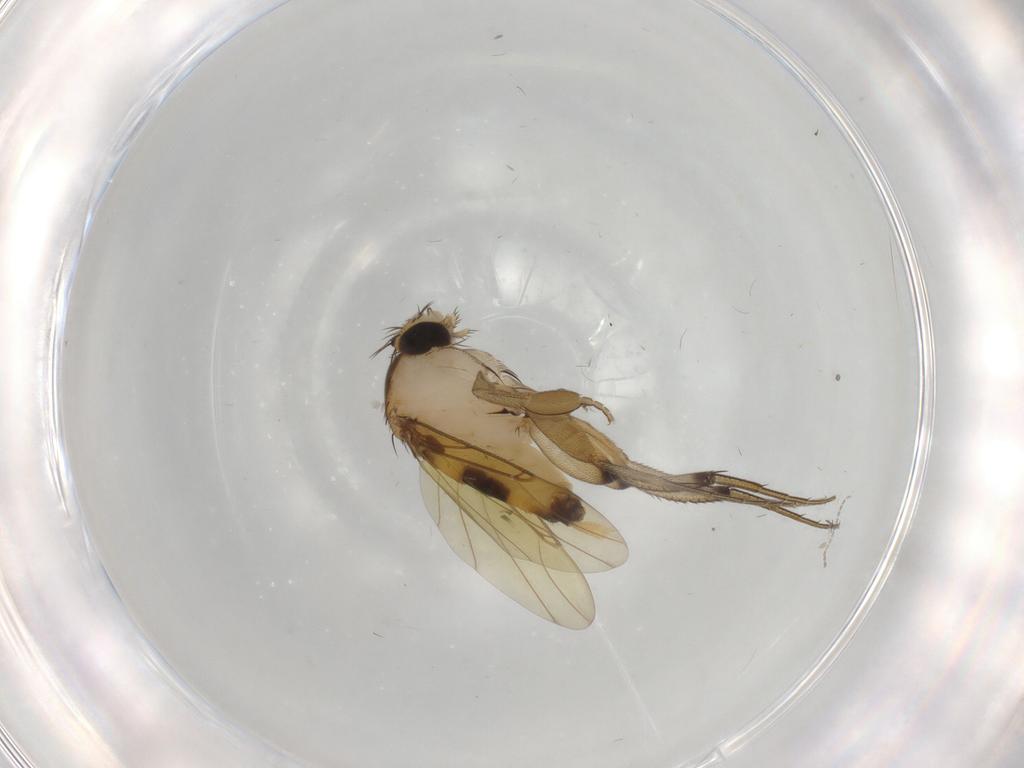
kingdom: Animalia
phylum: Arthropoda
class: Insecta
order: Diptera
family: Phoridae
